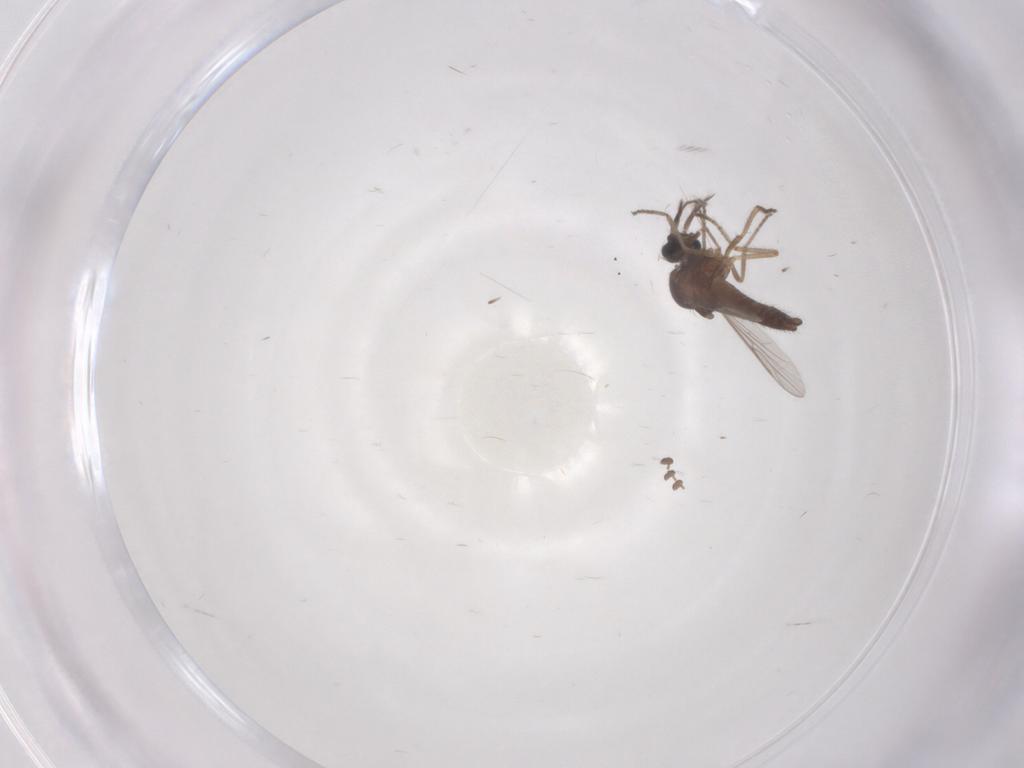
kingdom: Animalia
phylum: Arthropoda
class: Insecta
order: Diptera
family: Ceratopogonidae
